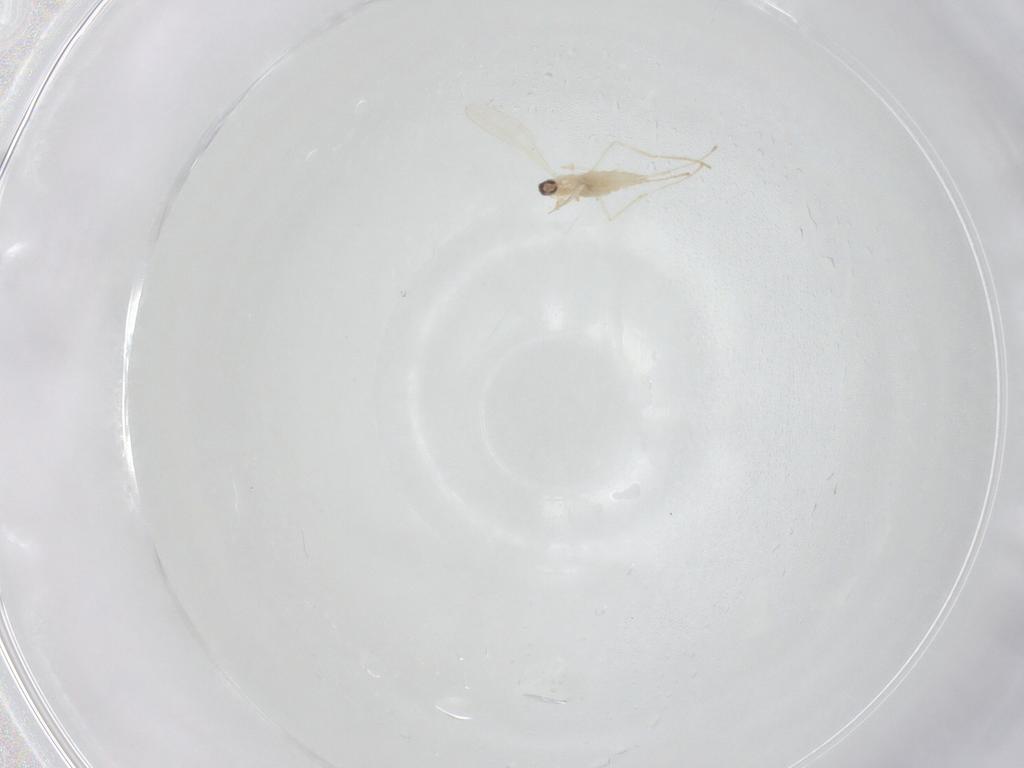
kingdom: Animalia
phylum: Arthropoda
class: Insecta
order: Diptera
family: Cecidomyiidae
